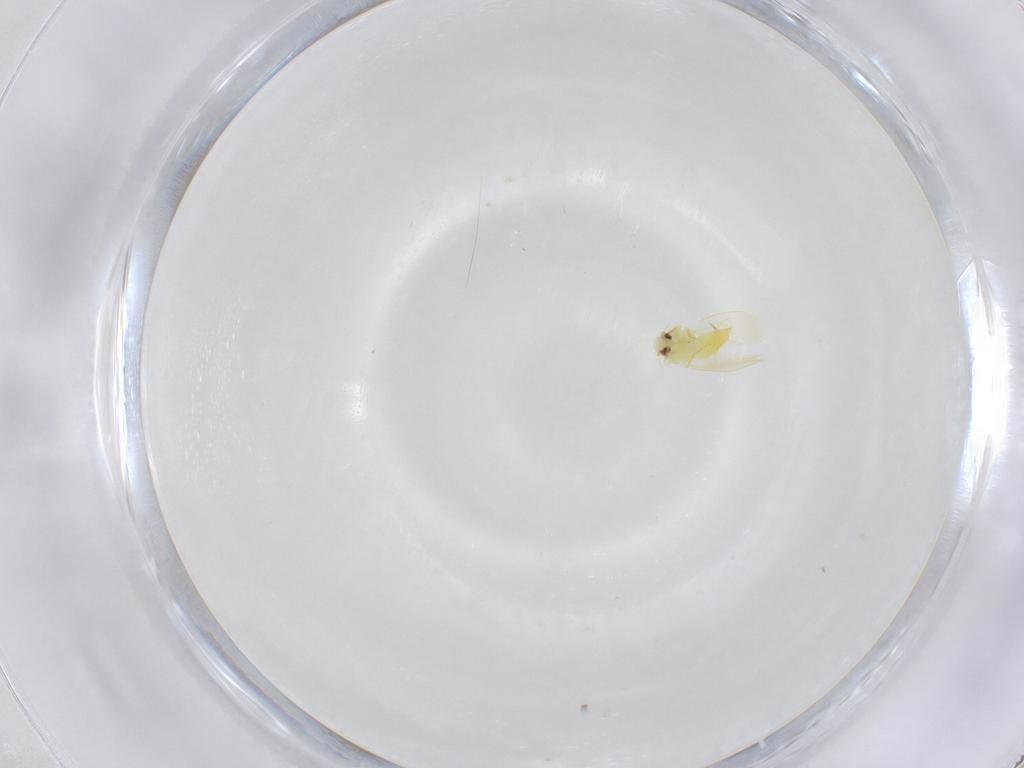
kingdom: Animalia
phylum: Arthropoda
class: Insecta
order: Hemiptera
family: Aleyrodidae
